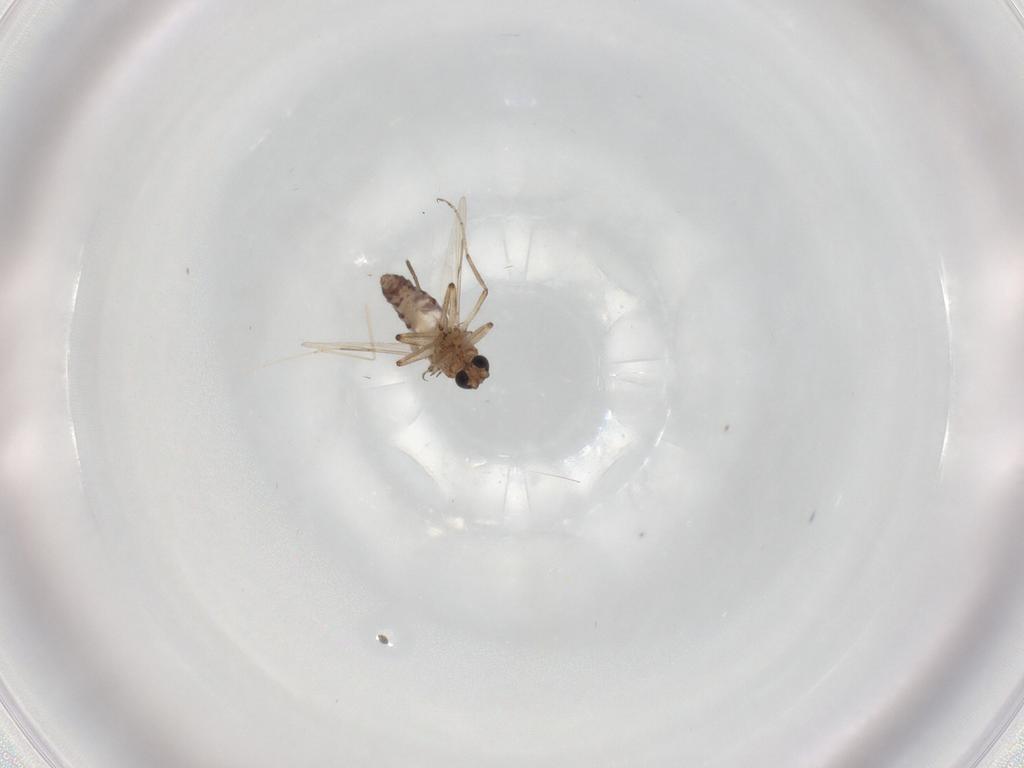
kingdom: Animalia
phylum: Arthropoda
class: Insecta
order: Diptera
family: Ceratopogonidae
